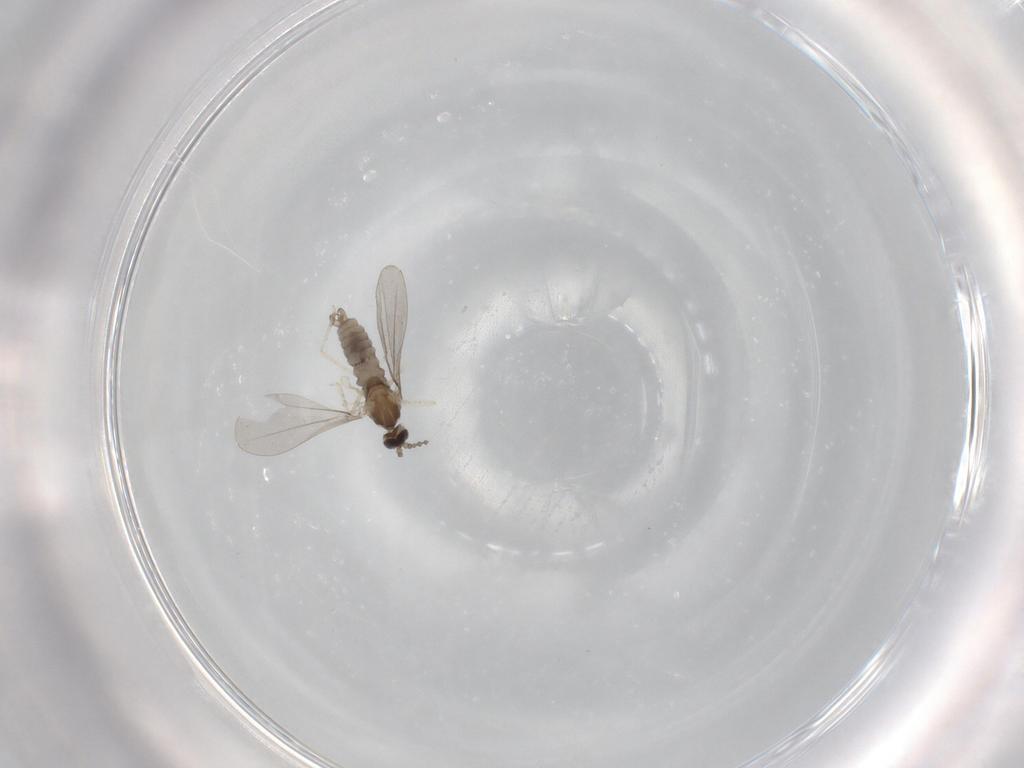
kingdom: Animalia
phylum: Arthropoda
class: Insecta
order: Diptera
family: Cecidomyiidae
